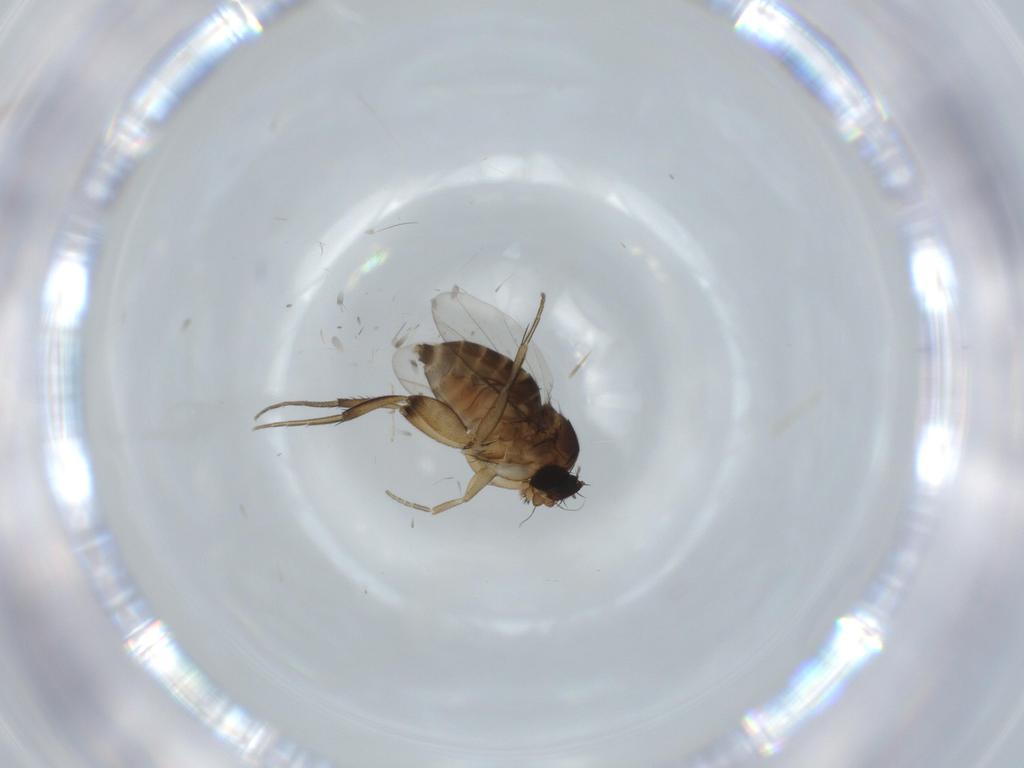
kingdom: Animalia
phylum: Arthropoda
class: Insecta
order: Diptera
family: Phoridae
